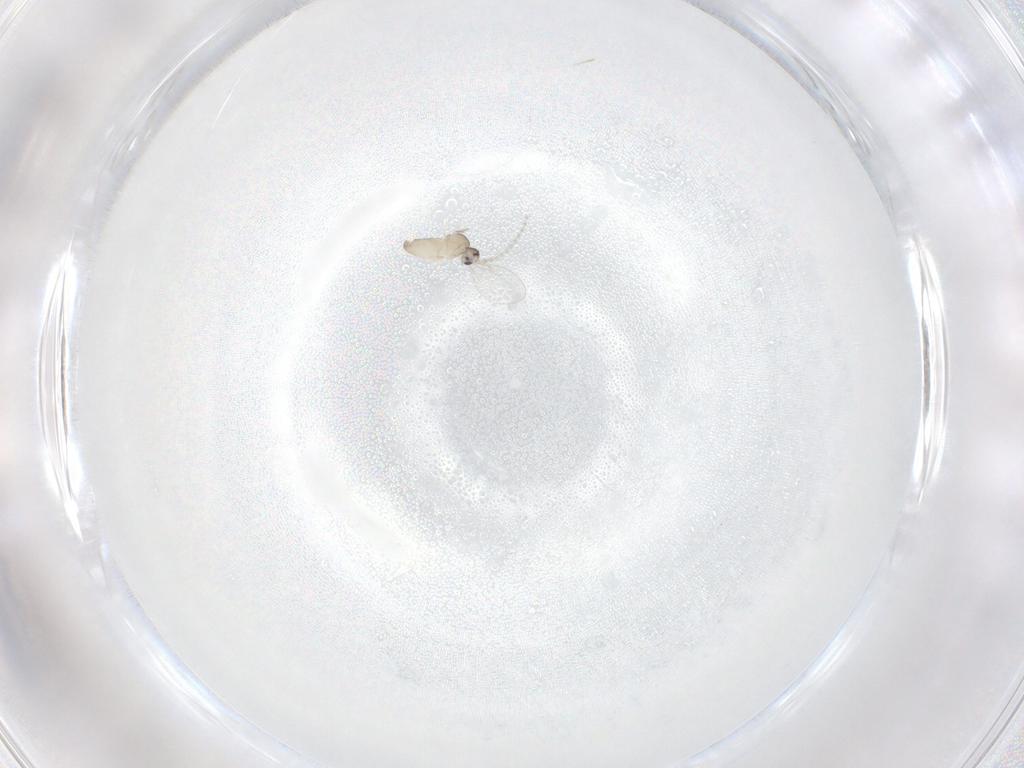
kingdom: Animalia
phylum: Arthropoda
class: Insecta
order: Diptera
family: Cecidomyiidae
